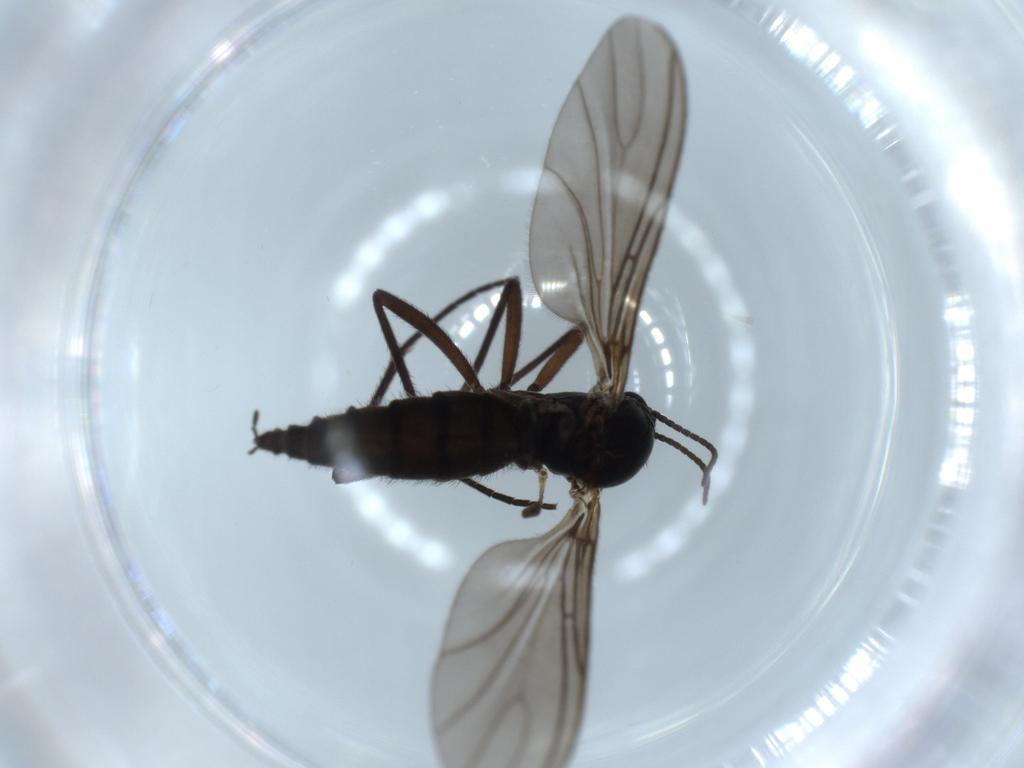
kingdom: Animalia
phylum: Arthropoda
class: Insecta
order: Diptera
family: Sciaridae
